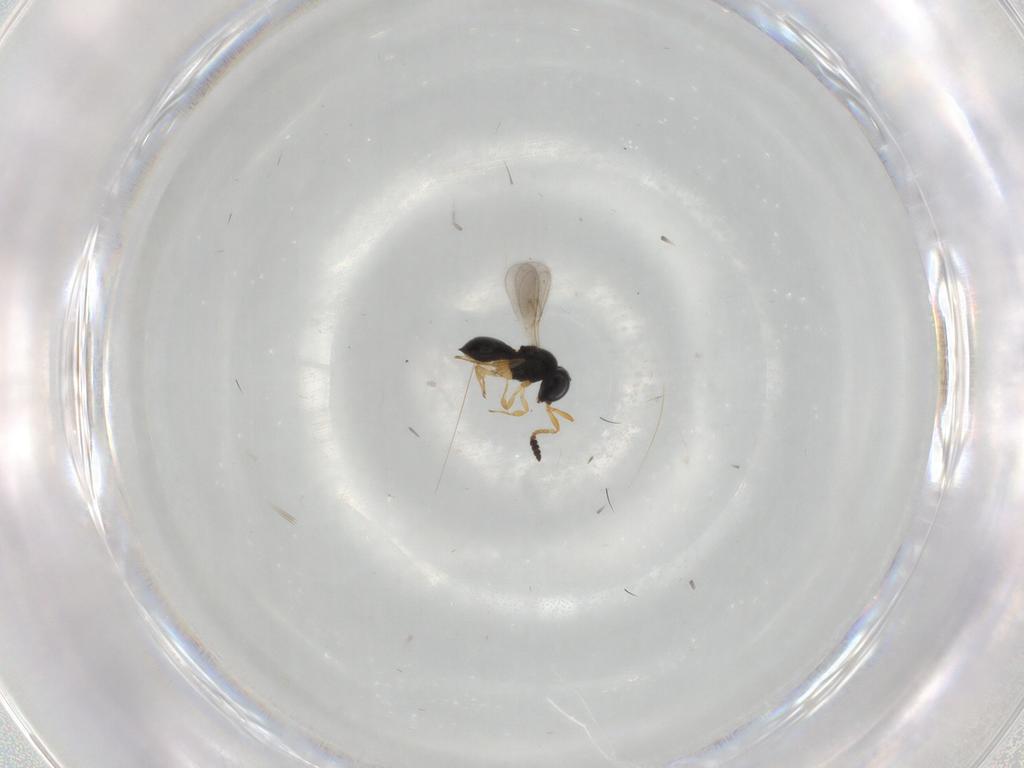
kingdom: Animalia
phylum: Arthropoda
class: Insecta
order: Hymenoptera
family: Scelionidae
